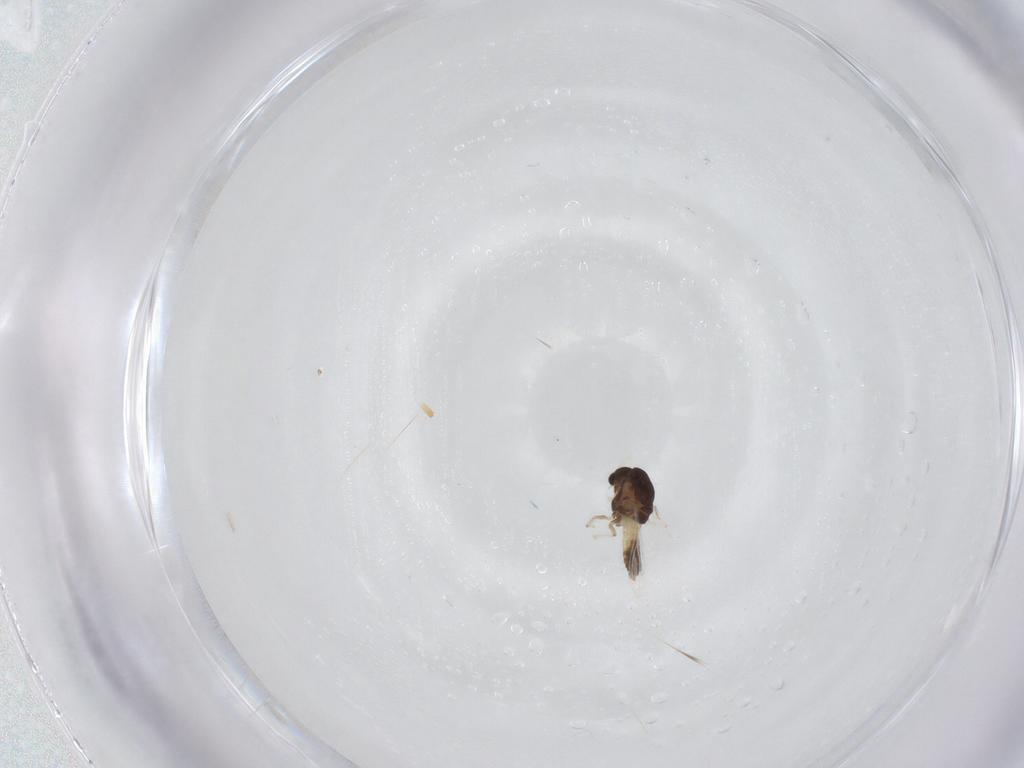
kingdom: Animalia
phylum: Arthropoda
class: Insecta
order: Diptera
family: Chironomidae
